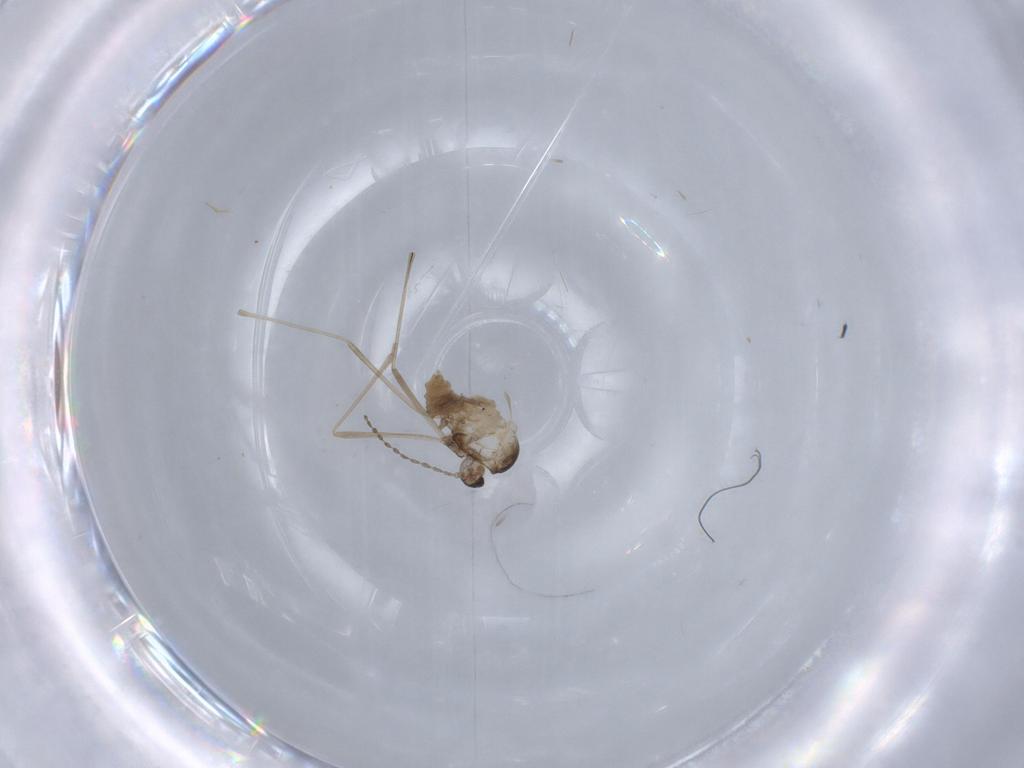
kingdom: Animalia
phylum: Arthropoda
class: Insecta
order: Diptera
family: Cecidomyiidae
